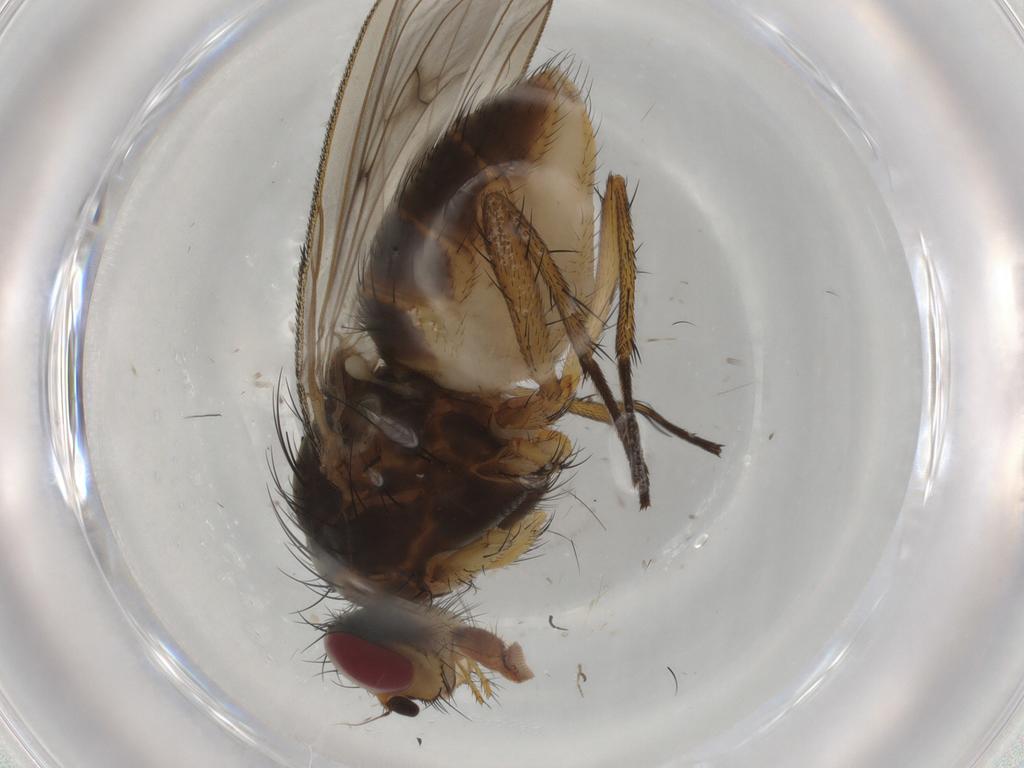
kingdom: Animalia
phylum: Arthropoda
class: Insecta
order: Diptera
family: Anthomyiidae
